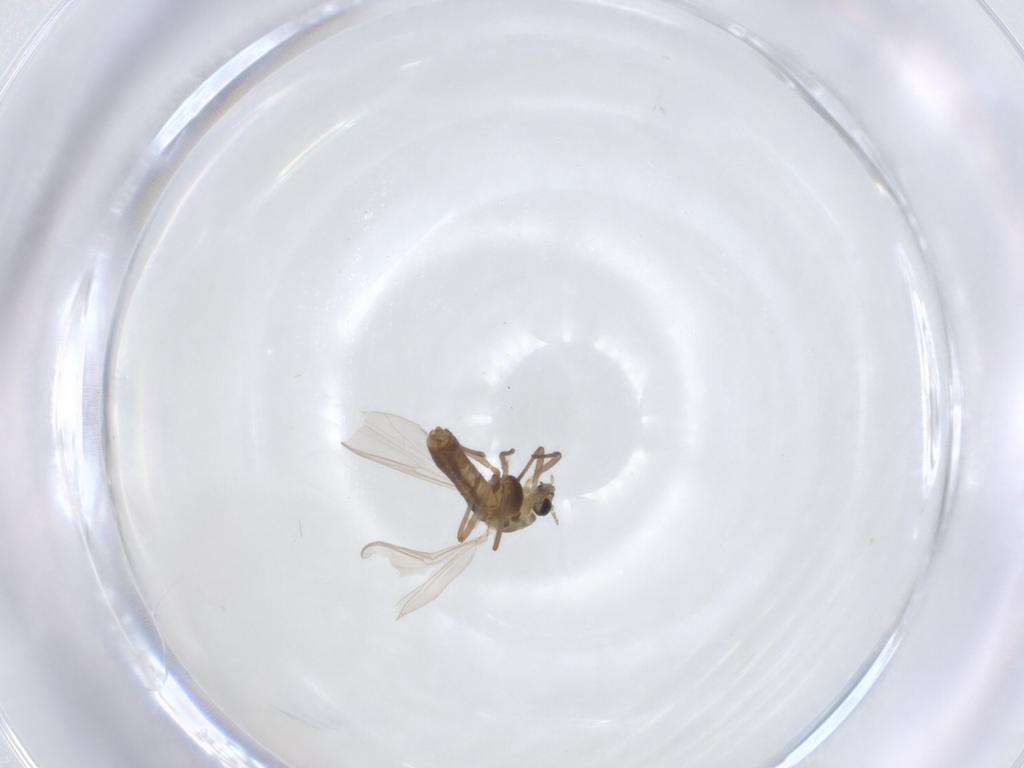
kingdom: Animalia
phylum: Arthropoda
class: Insecta
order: Diptera
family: Chironomidae
